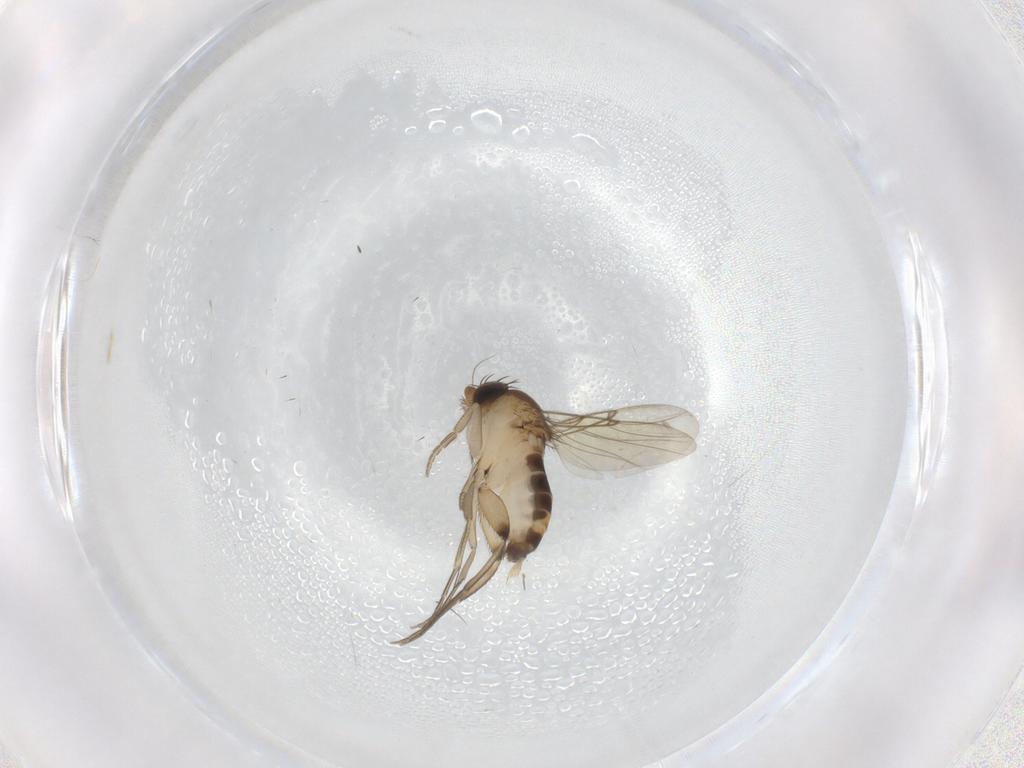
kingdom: Animalia
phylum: Arthropoda
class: Insecta
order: Diptera
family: Phoridae
